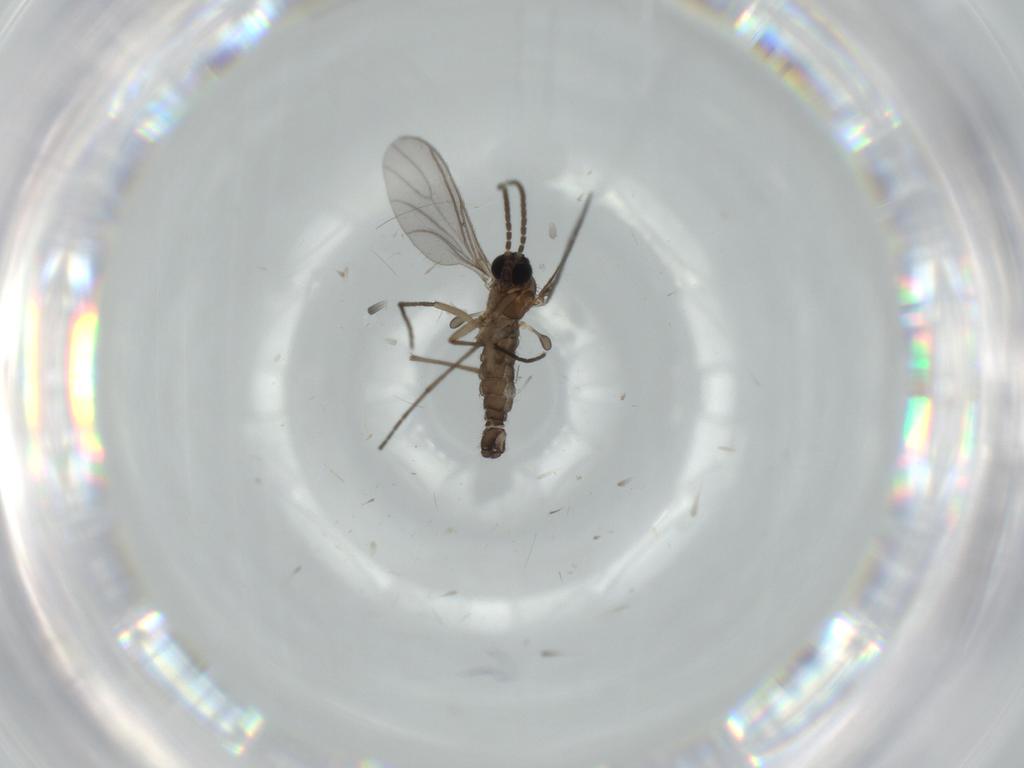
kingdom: Animalia
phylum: Arthropoda
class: Insecta
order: Diptera
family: Sciaridae
